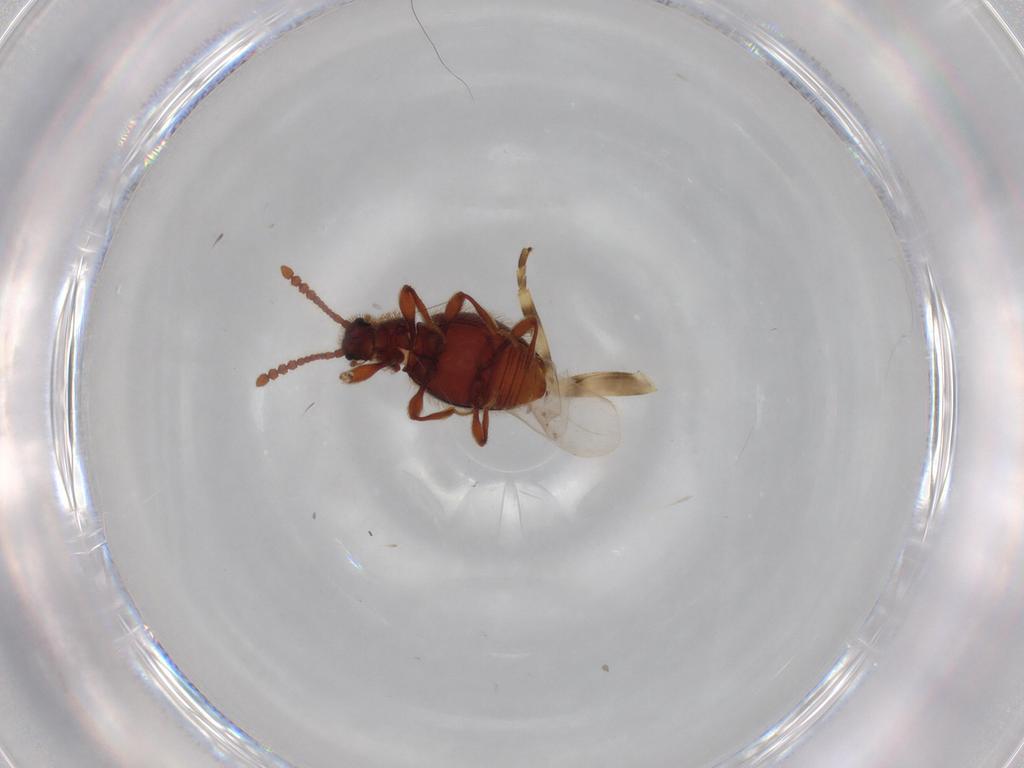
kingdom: Animalia
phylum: Arthropoda
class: Insecta
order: Coleoptera
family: Staphylinidae
